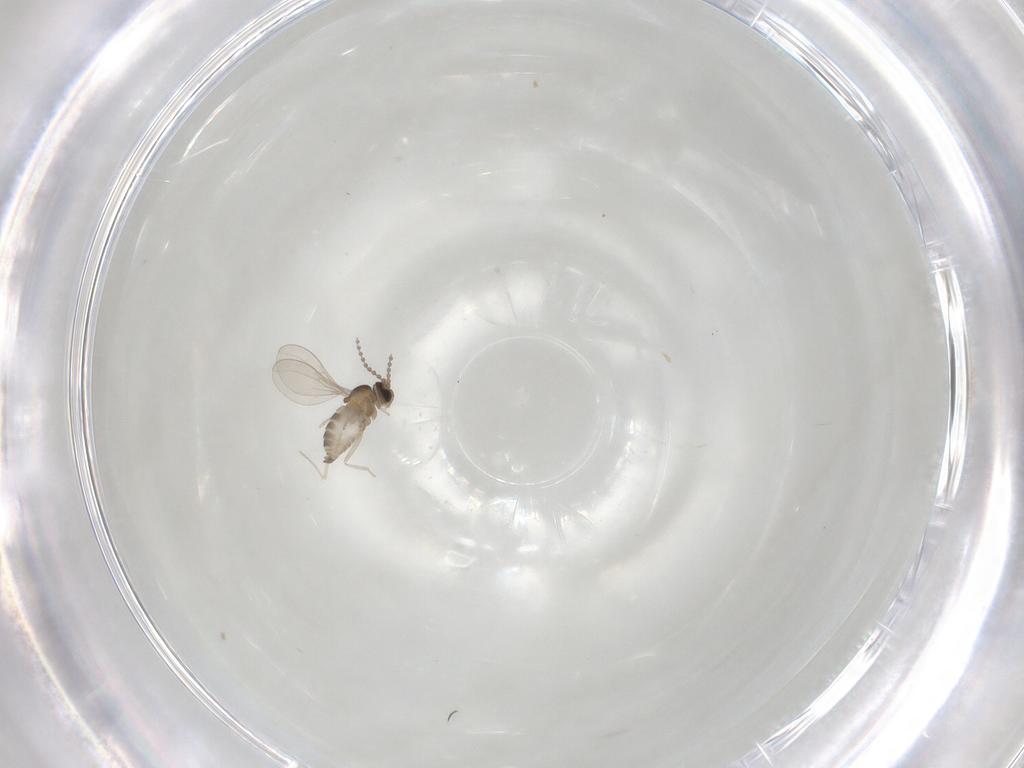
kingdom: Animalia
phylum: Arthropoda
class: Insecta
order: Diptera
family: Cecidomyiidae
